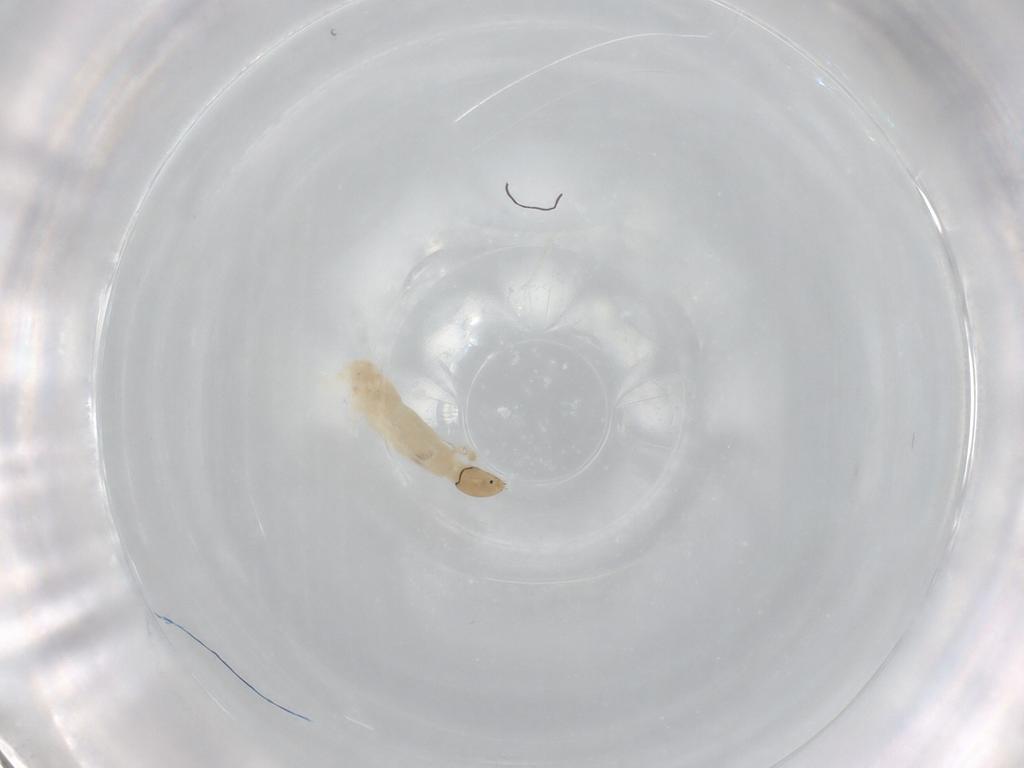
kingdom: Animalia
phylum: Arthropoda
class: Insecta
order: Diptera
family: Chironomidae
